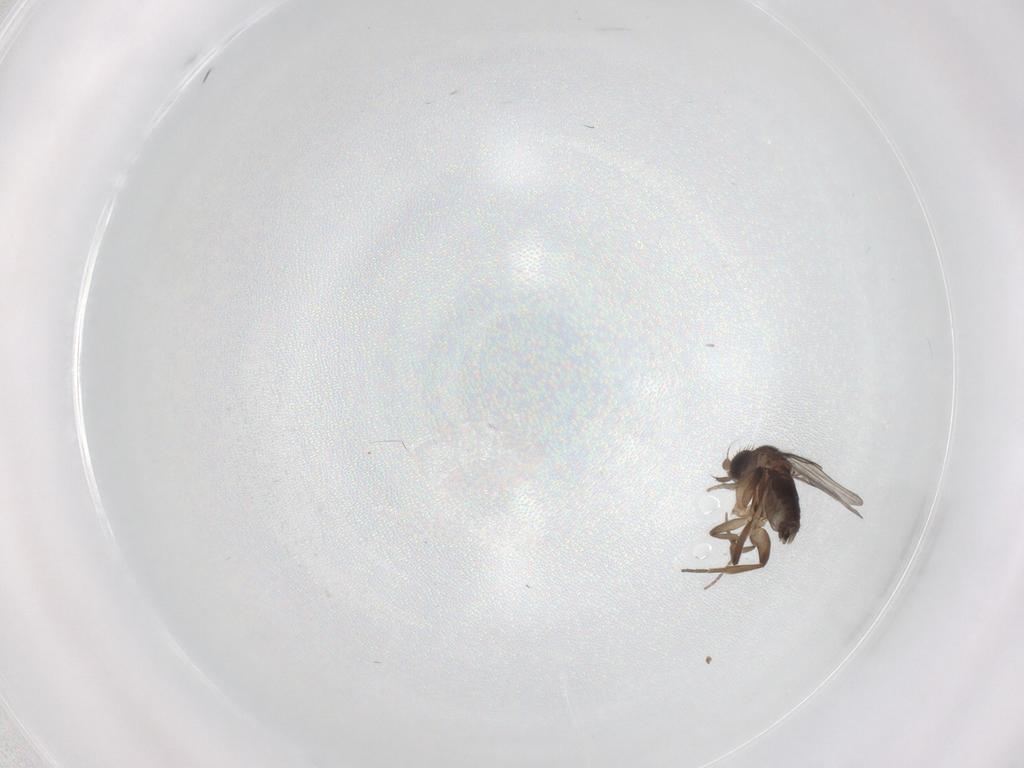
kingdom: Animalia
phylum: Arthropoda
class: Insecta
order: Diptera
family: Phoridae
